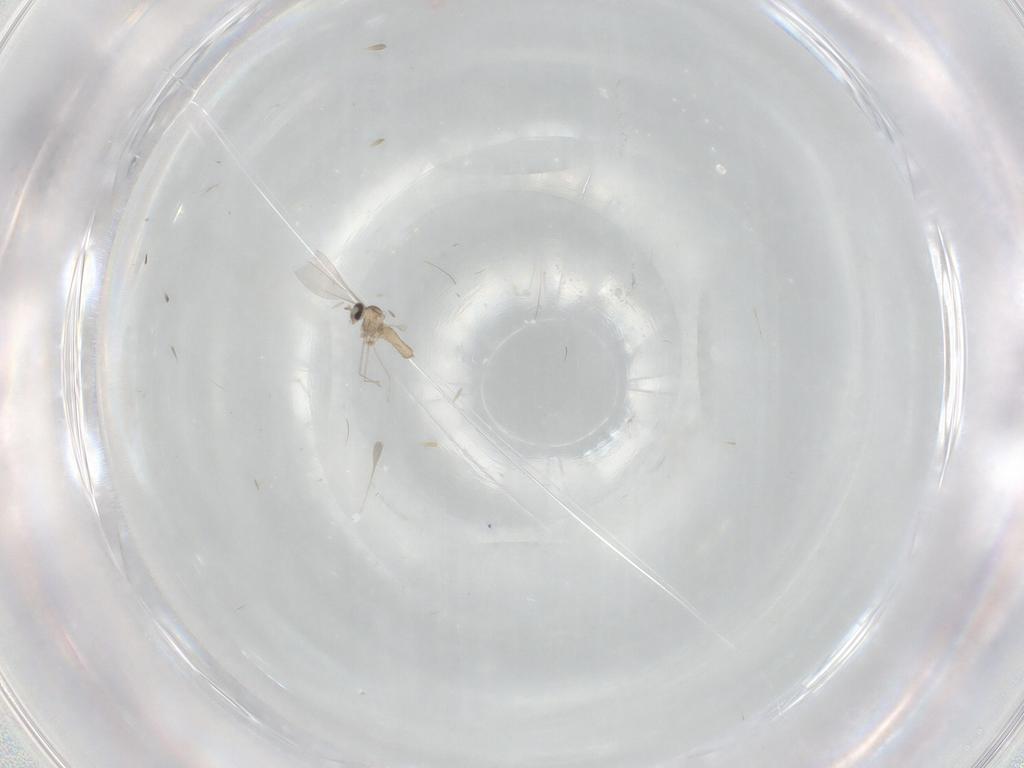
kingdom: Animalia
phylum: Arthropoda
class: Insecta
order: Diptera
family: Cecidomyiidae
